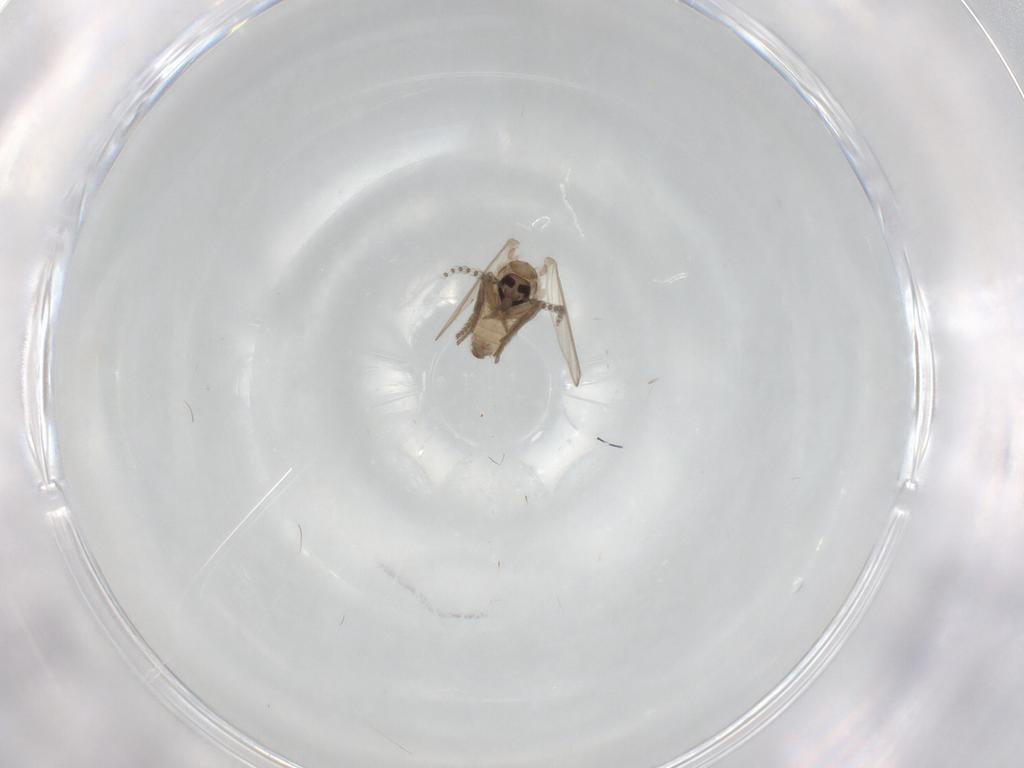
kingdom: Animalia
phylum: Arthropoda
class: Insecta
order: Diptera
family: Psychodidae
